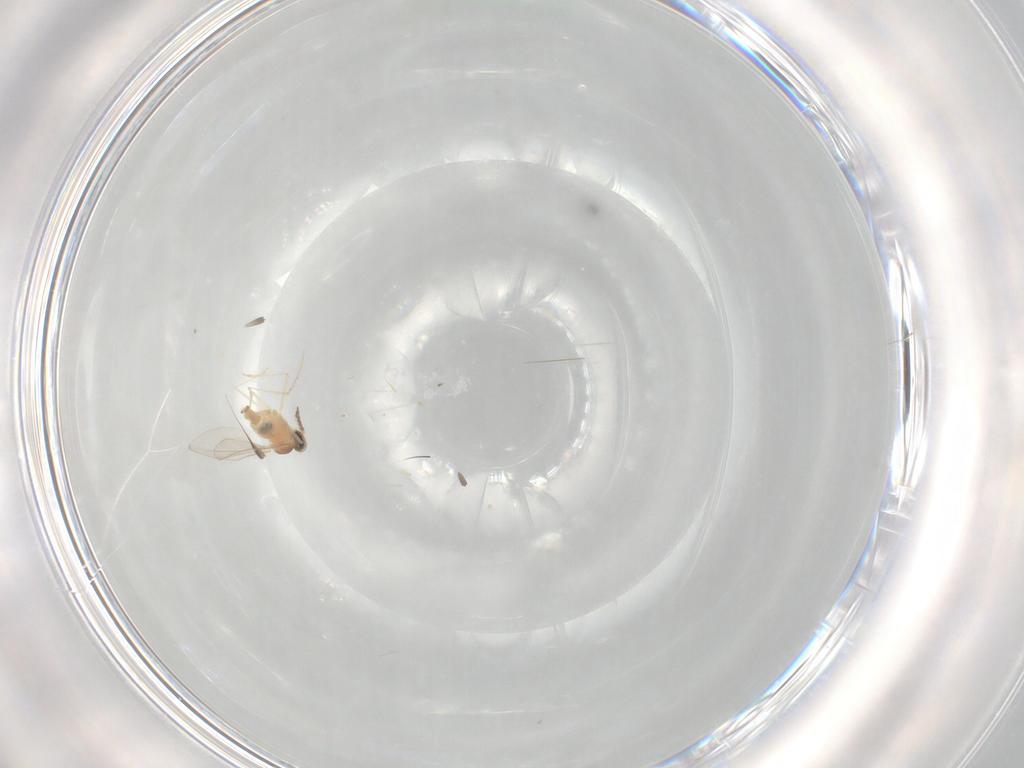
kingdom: Animalia
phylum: Arthropoda
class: Insecta
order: Diptera
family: Cecidomyiidae
